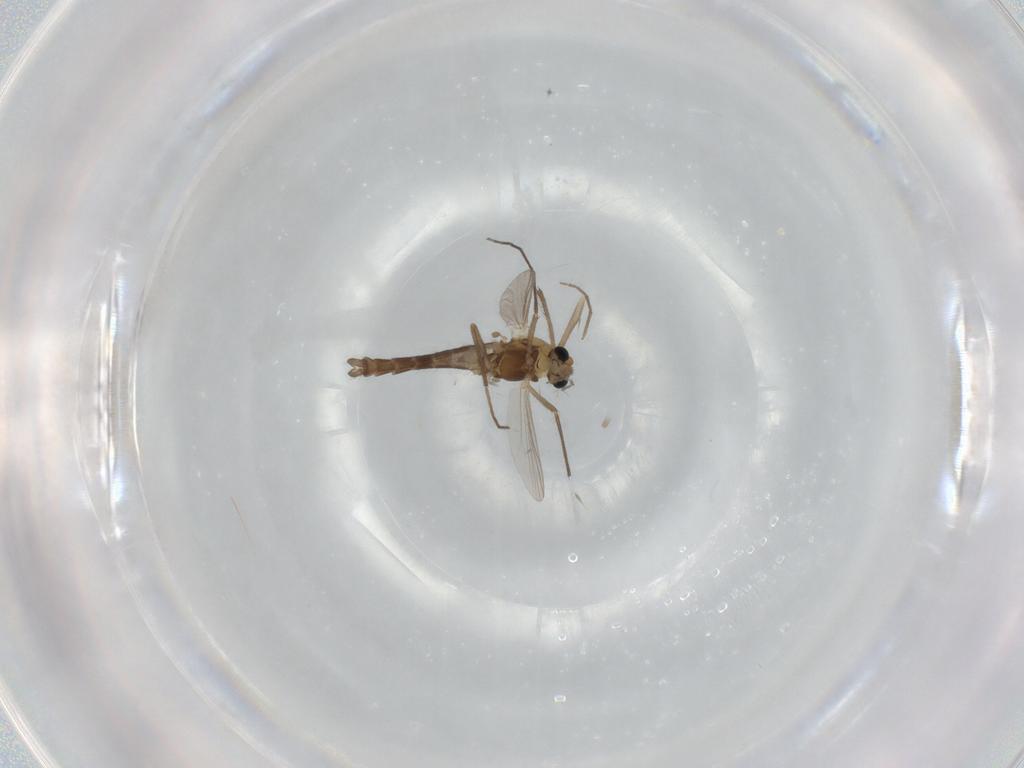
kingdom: Animalia
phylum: Arthropoda
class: Insecta
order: Diptera
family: Chironomidae
